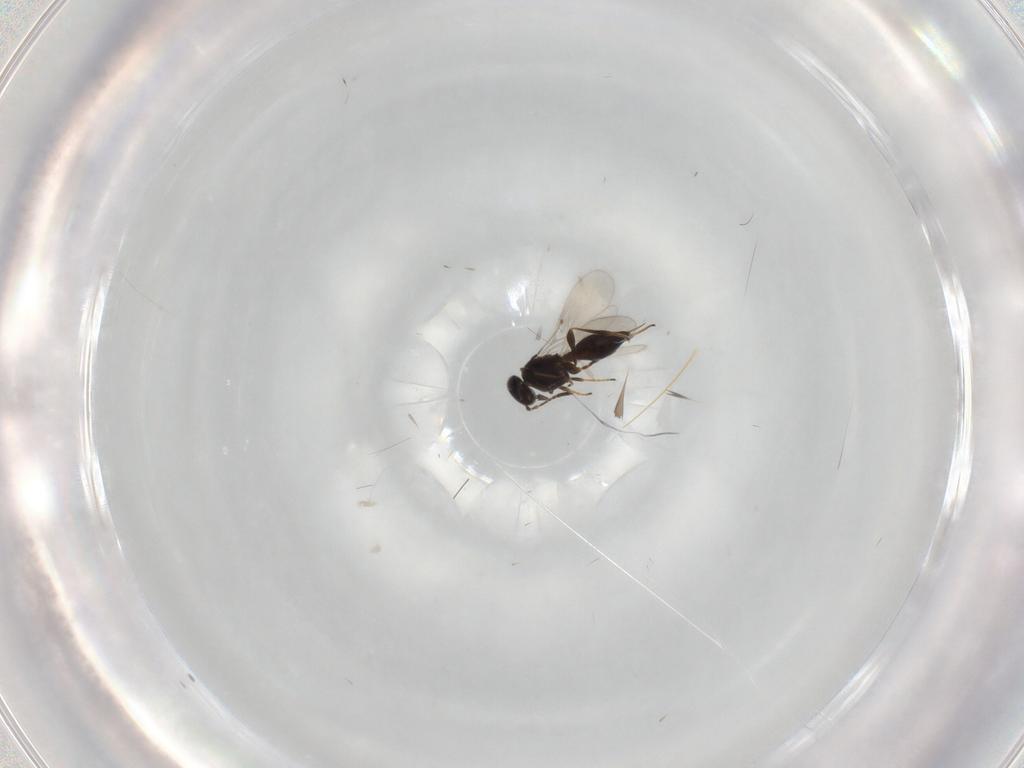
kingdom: Animalia
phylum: Arthropoda
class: Insecta
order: Hymenoptera
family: Platygastridae
